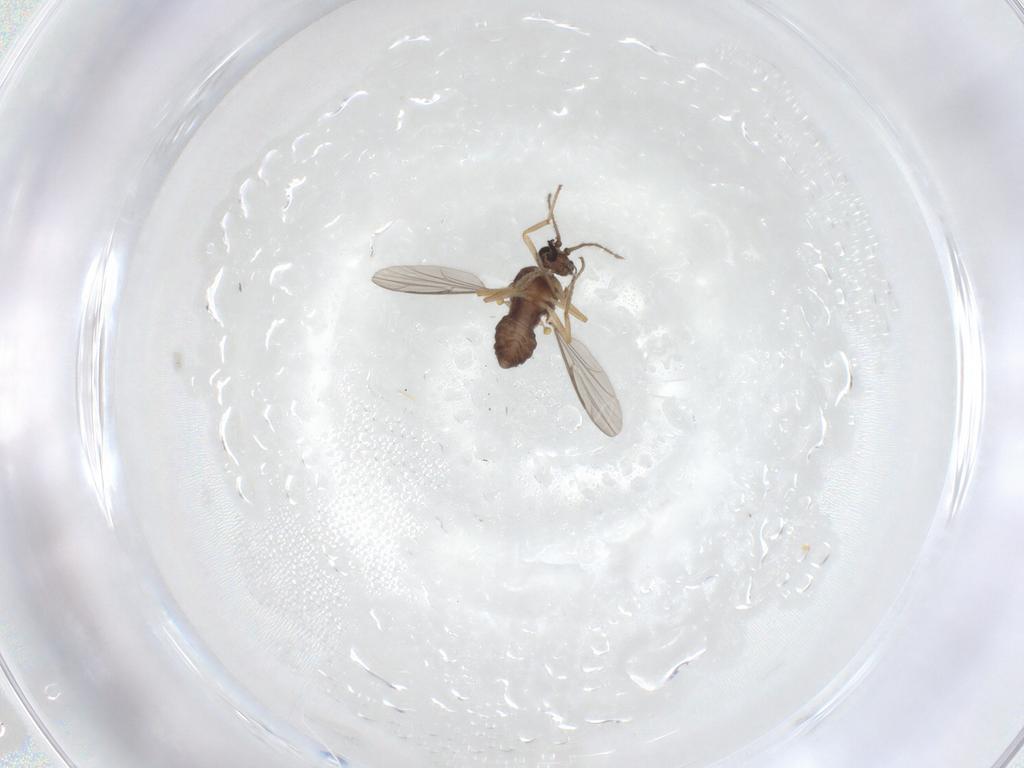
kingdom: Animalia
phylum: Arthropoda
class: Insecta
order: Diptera
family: Ceratopogonidae
